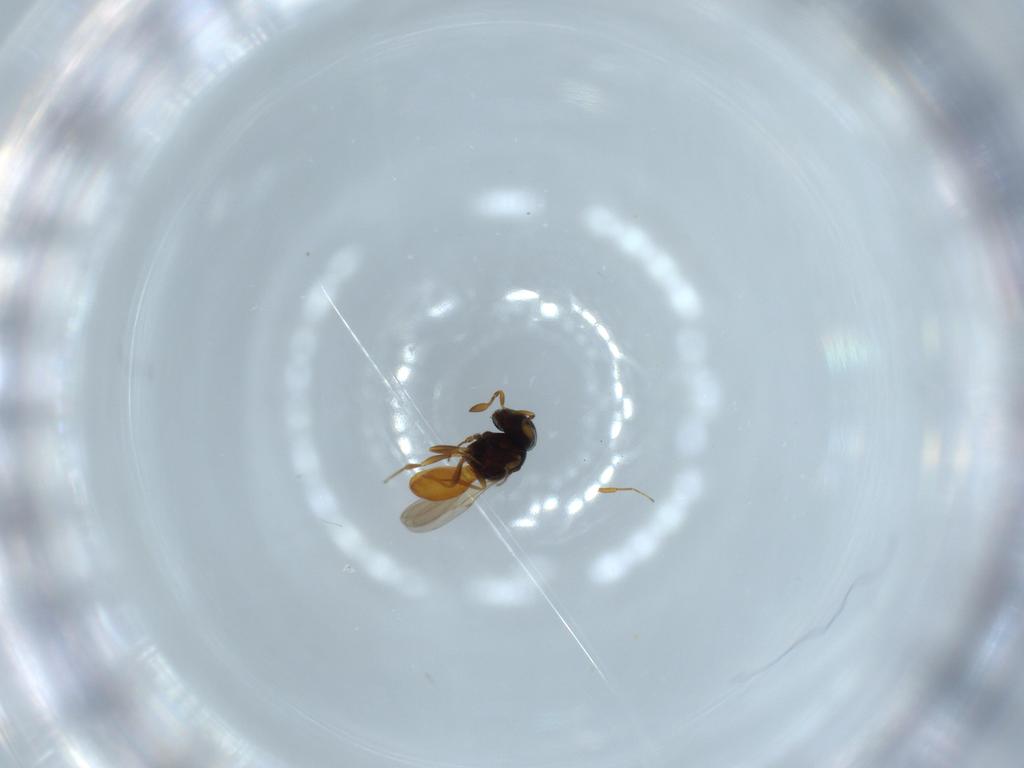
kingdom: Animalia
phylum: Arthropoda
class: Insecta
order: Hymenoptera
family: Scelionidae
